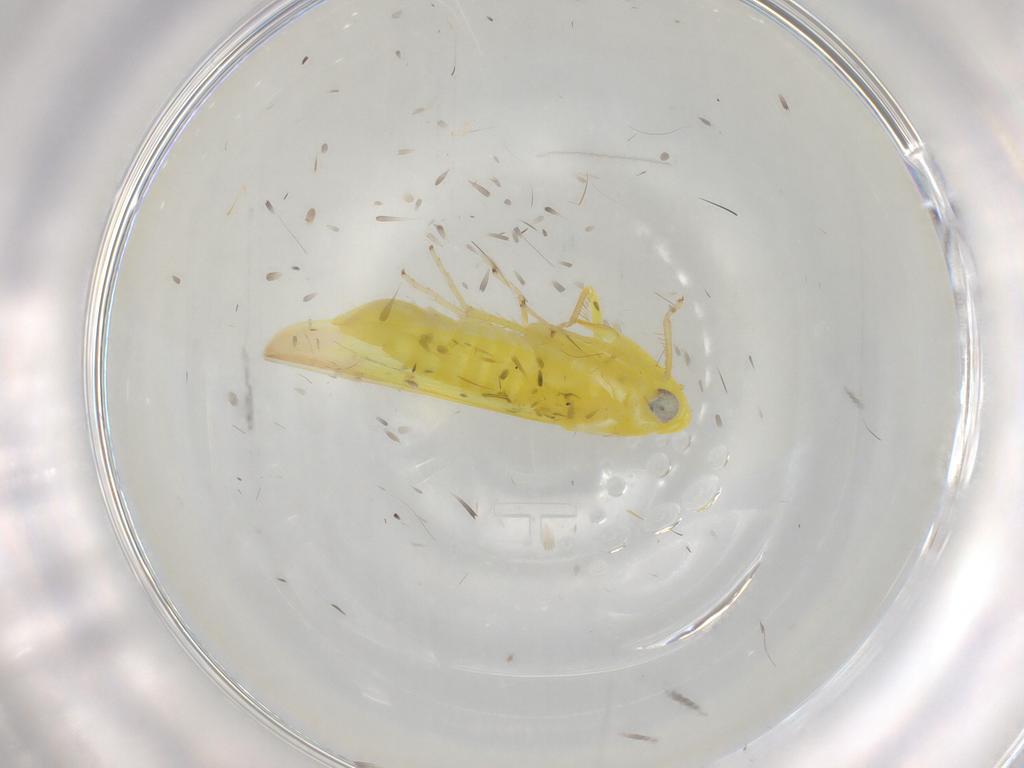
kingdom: Animalia
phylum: Arthropoda
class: Insecta
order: Hemiptera
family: Cicadellidae
